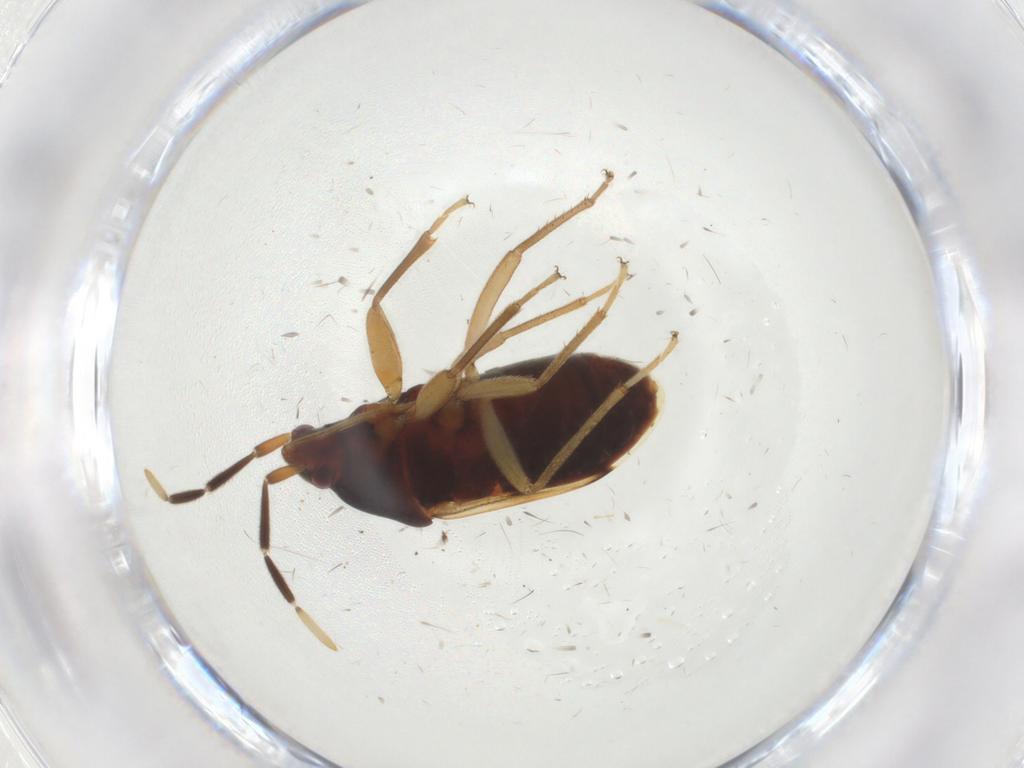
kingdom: Animalia
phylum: Arthropoda
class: Insecta
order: Hemiptera
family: Rhyparochromidae
